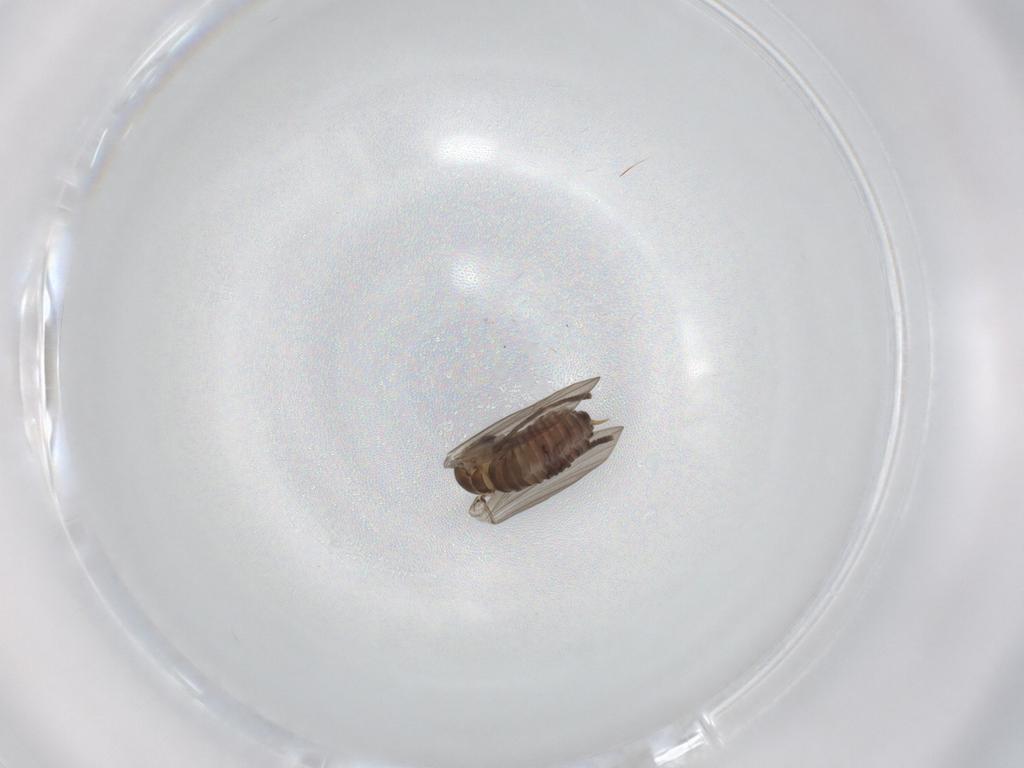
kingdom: Animalia
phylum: Arthropoda
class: Insecta
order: Diptera
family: Psychodidae
